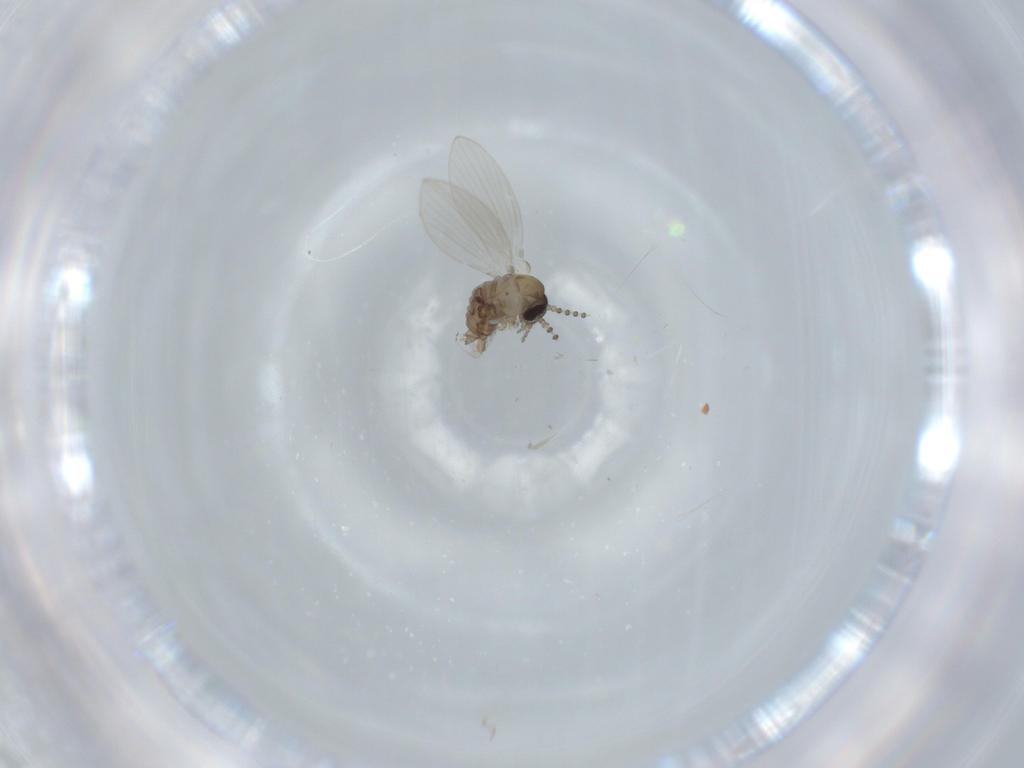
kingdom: Animalia
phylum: Arthropoda
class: Insecta
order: Diptera
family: Psychodidae
